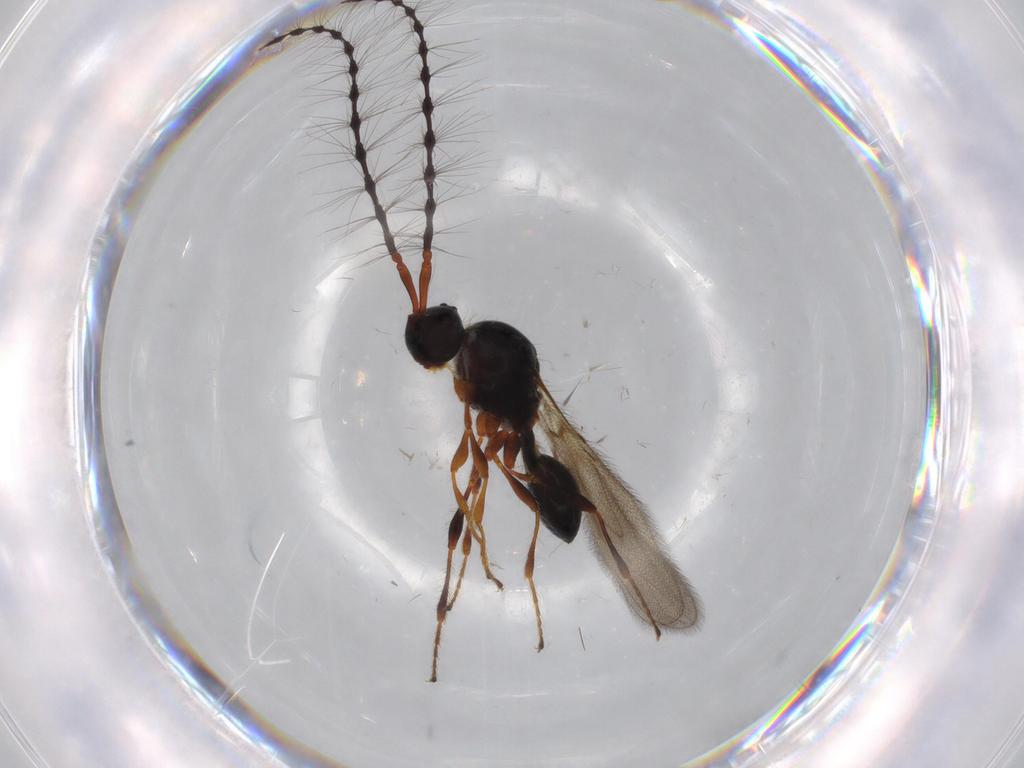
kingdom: Animalia
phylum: Arthropoda
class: Insecta
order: Hymenoptera
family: Diapriidae
